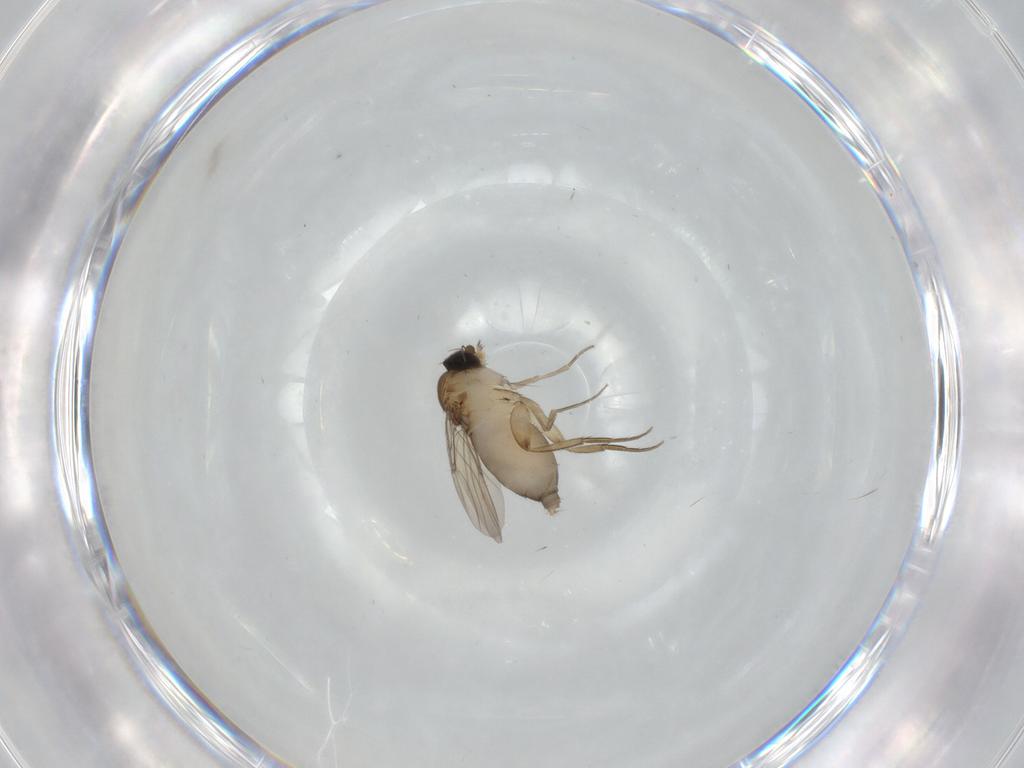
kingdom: Animalia
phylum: Arthropoda
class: Insecta
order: Diptera
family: Phoridae
